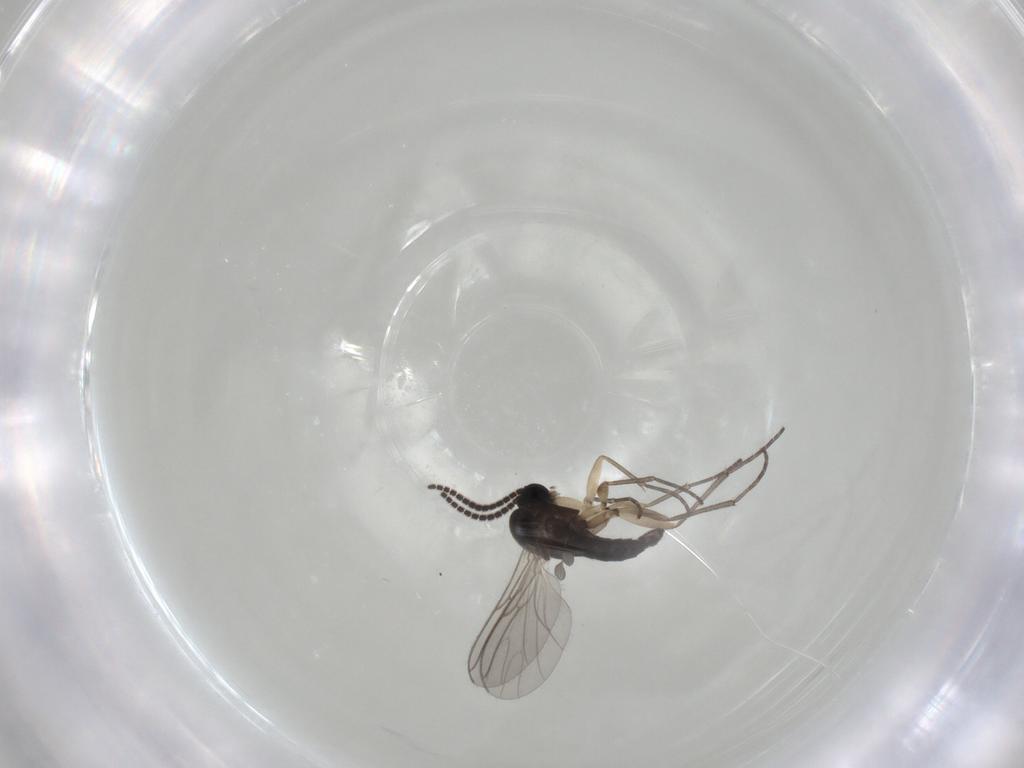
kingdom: Animalia
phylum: Arthropoda
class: Insecta
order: Diptera
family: Sciaridae
